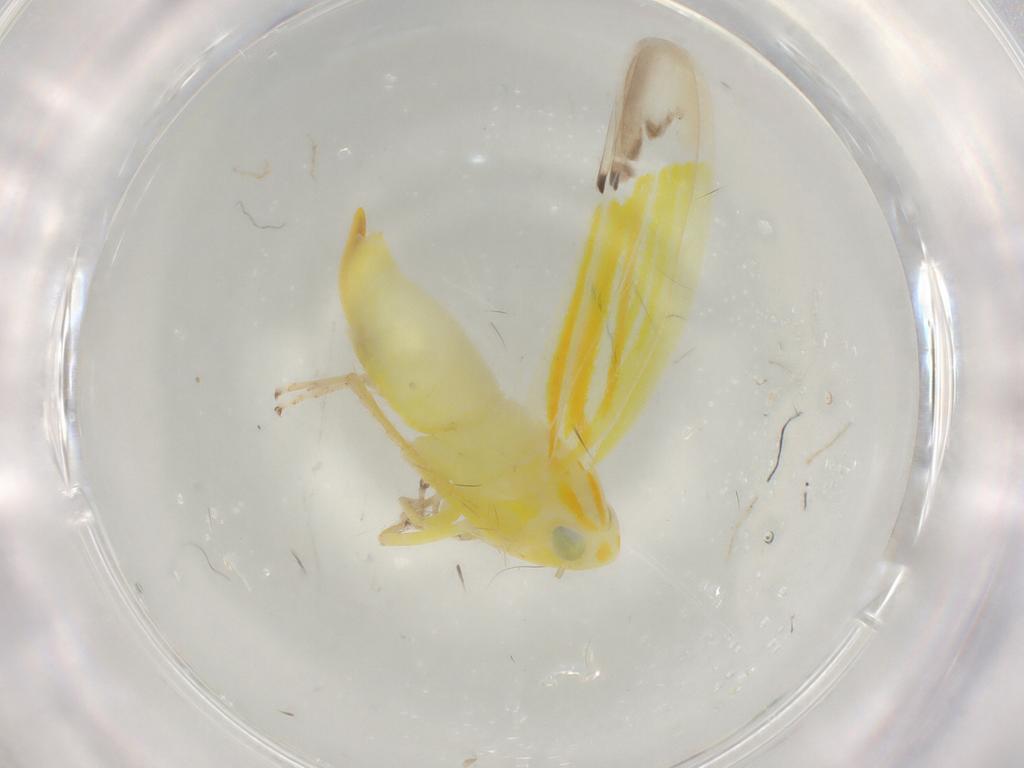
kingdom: Animalia
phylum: Arthropoda
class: Insecta
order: Hemiptera
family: Cicadellidae
